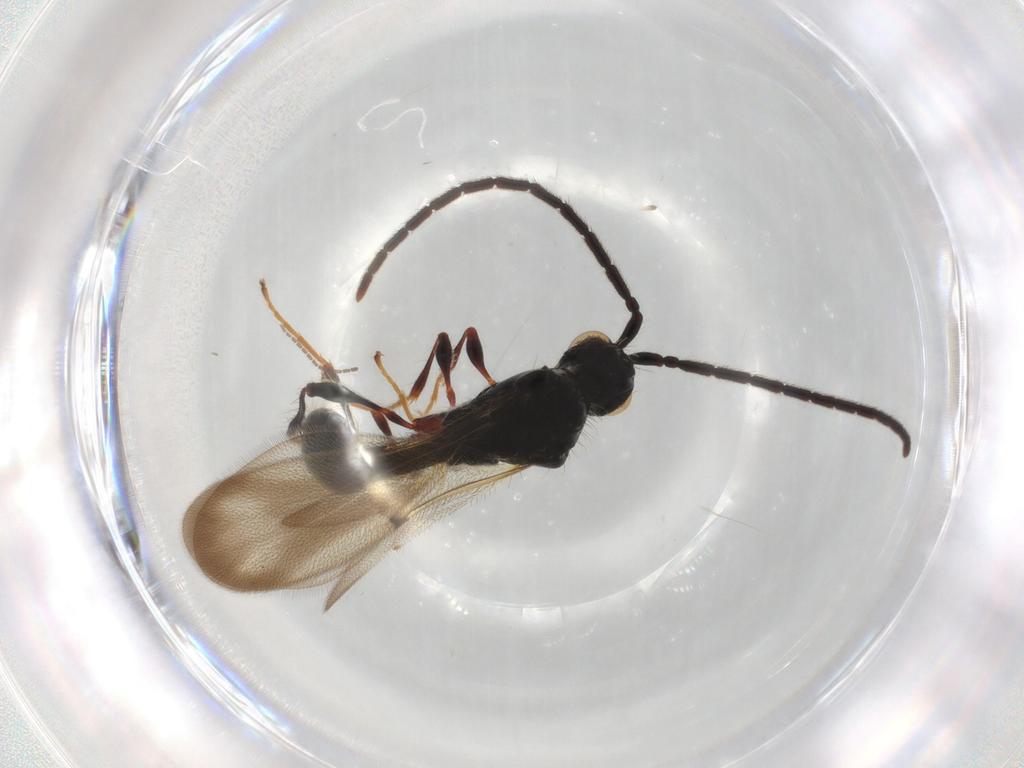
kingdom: Animalia
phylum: Arthropoda
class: Insecta
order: Hymenoptera
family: Diapriidae
